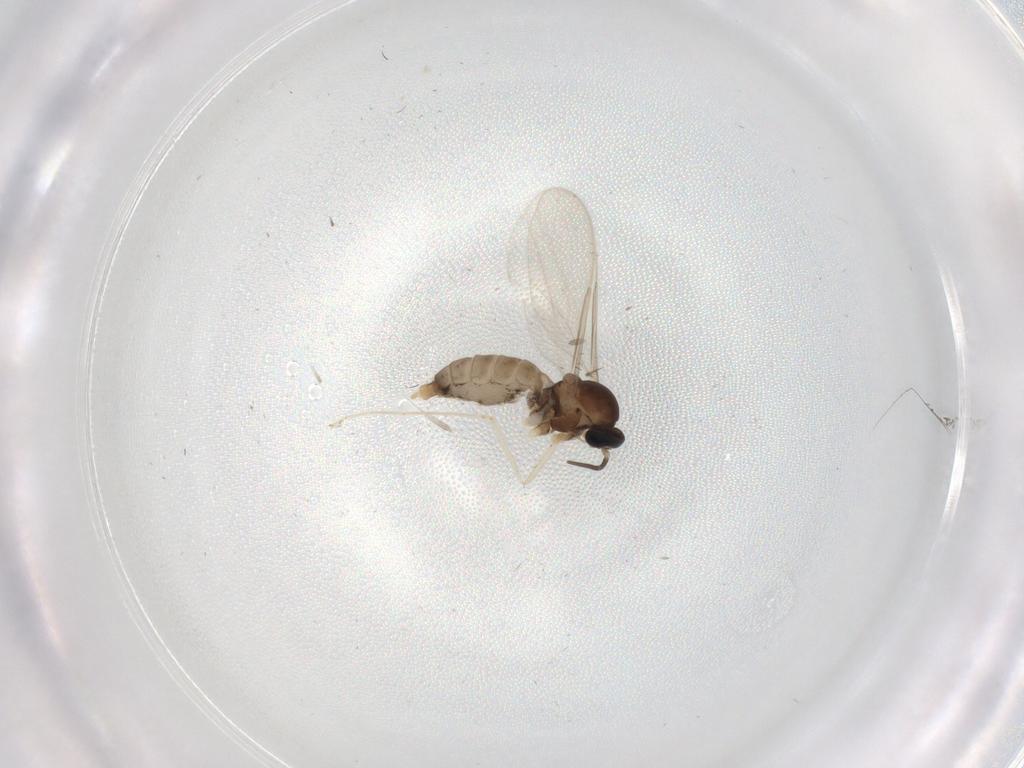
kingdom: Animalia
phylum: Arthropoda
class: Insecta
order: Diptera
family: Cecidomyiidae
